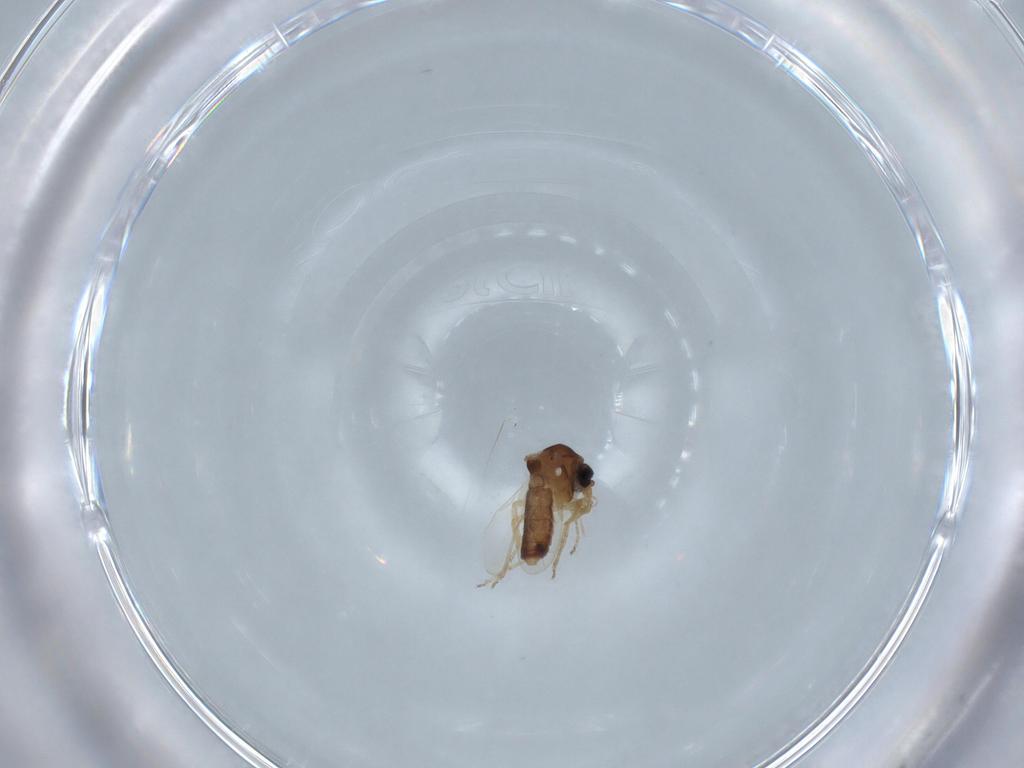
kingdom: Animalia
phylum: Arthropoda
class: Insecta
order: Diptera
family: Ceratopogonidae
